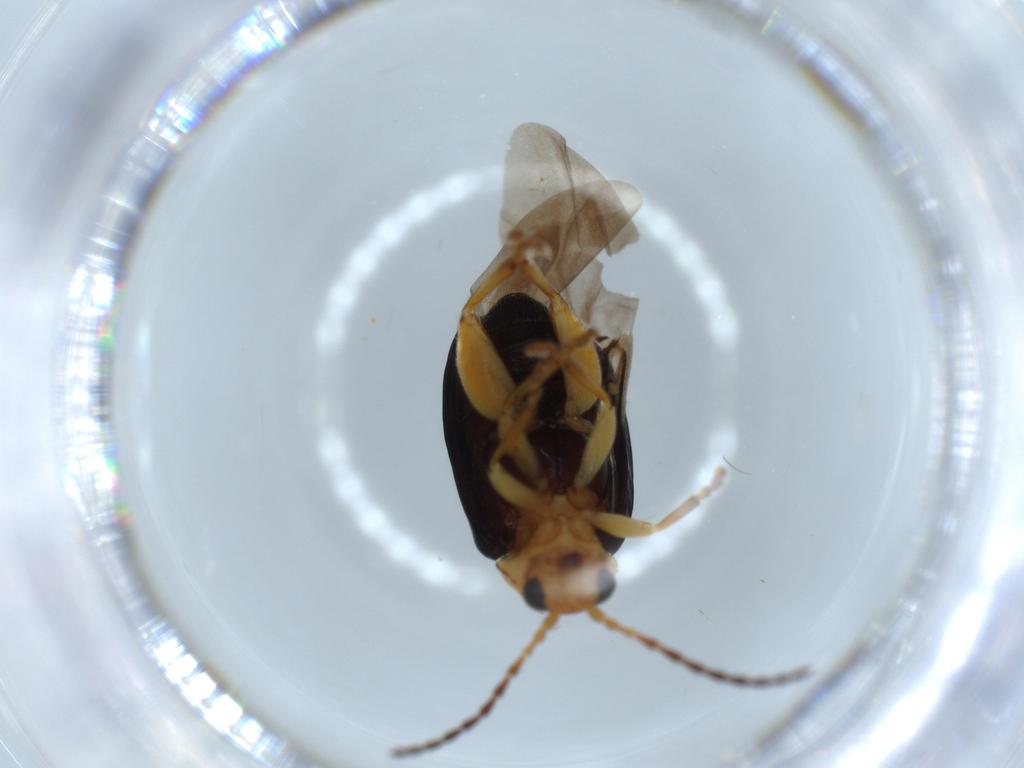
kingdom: Animalia
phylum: Arthropoda
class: Insecta
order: Coleoptera
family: Chrysomelidae
